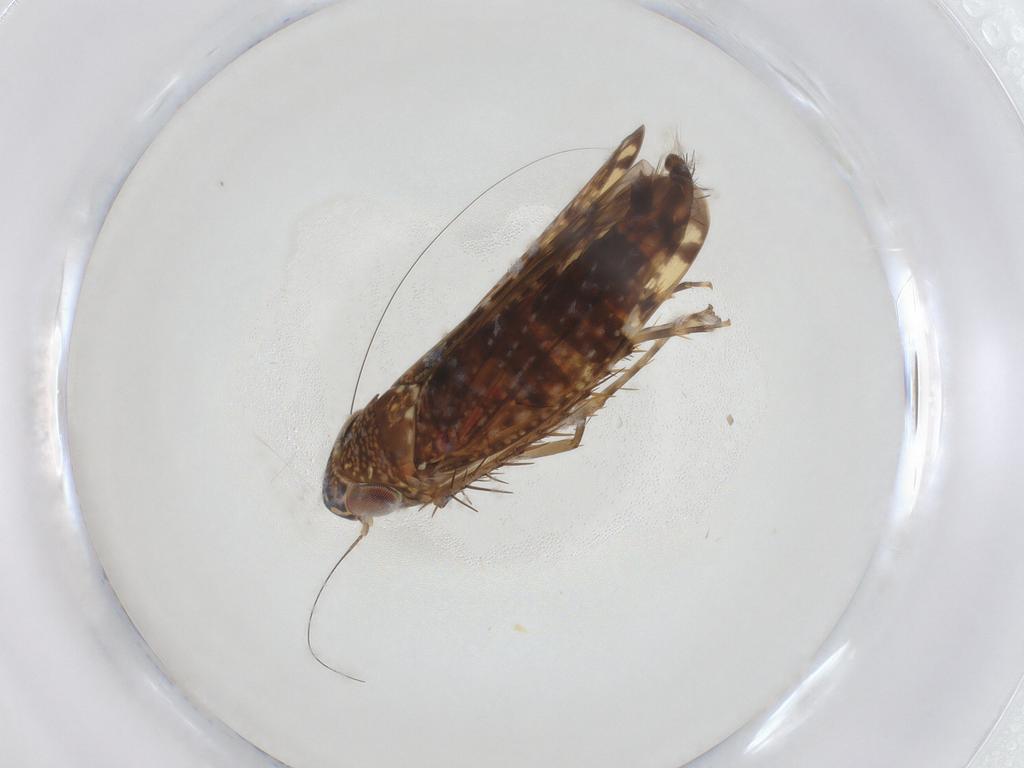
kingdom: Animalia
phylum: Arthropoda
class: Insecta
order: Hemiptera
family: Cicadellidae
